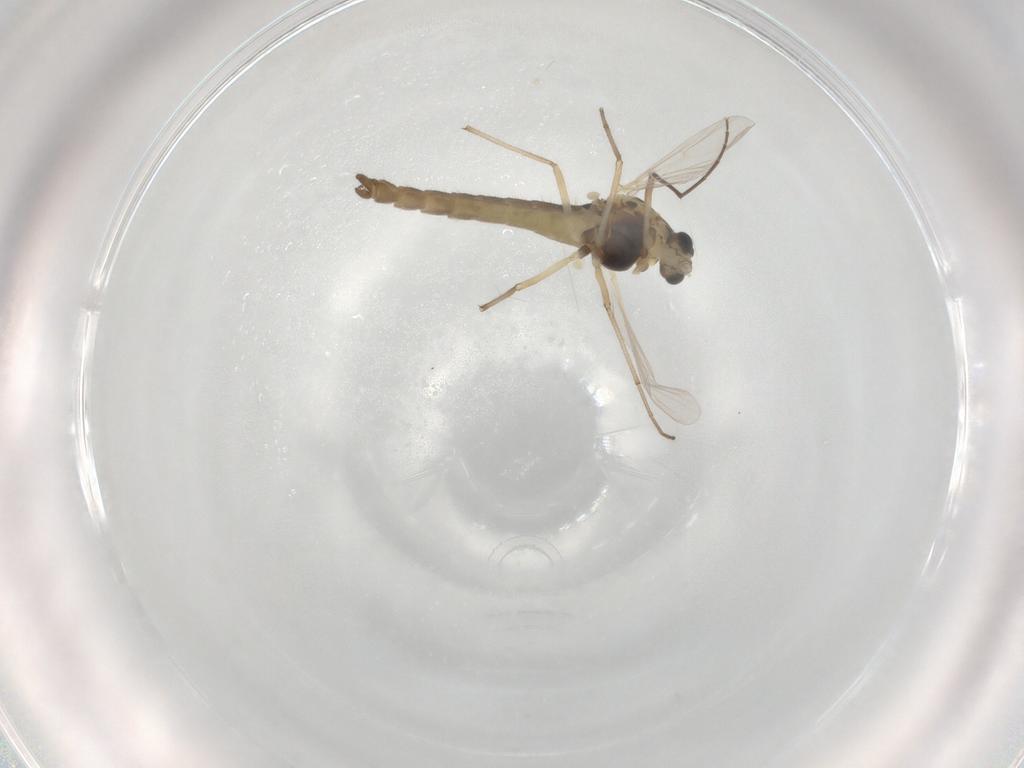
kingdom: Animalia
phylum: Arthropoda
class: Insecta
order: Diptera
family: Chironomidae
